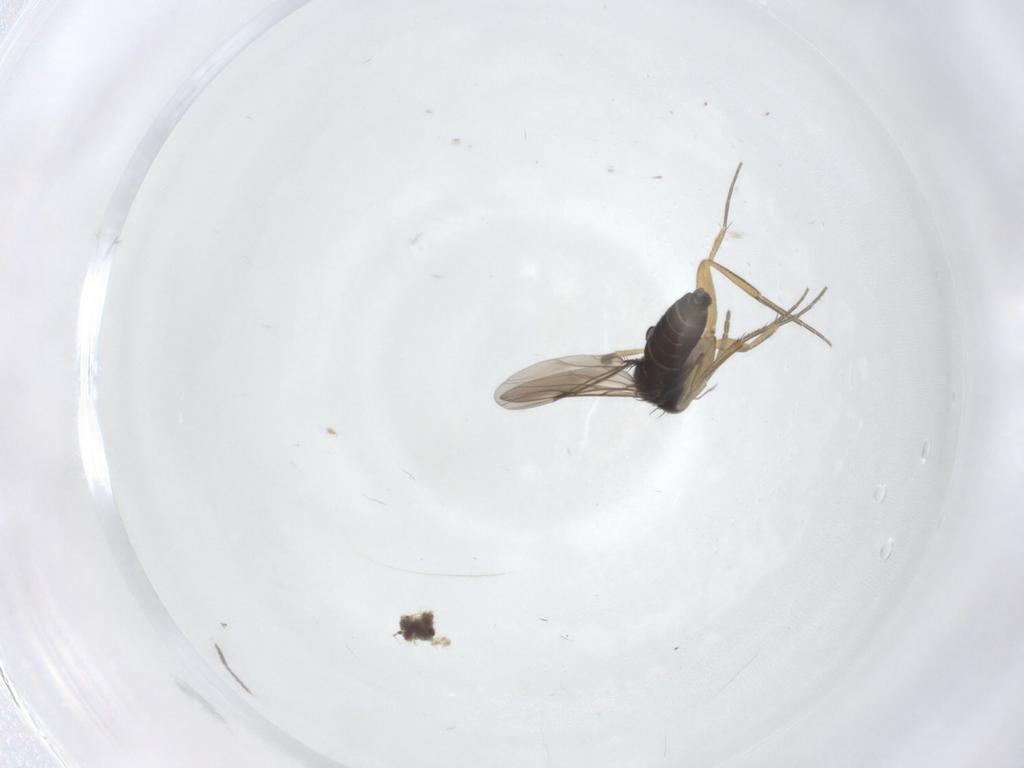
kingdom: Animalia
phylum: Arthropoda
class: Insecta
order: Diptera
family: Cecidomyiidae
